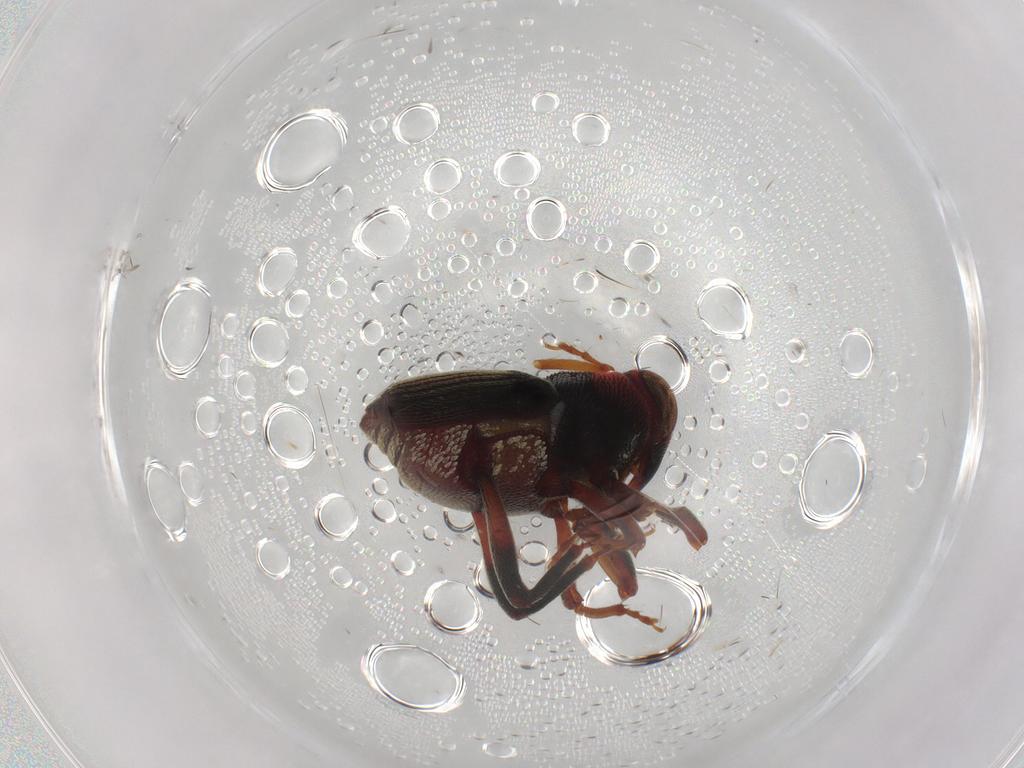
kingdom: Animalia
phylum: Arthropoda
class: Insecta
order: Coleoptera
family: Curculionidae
